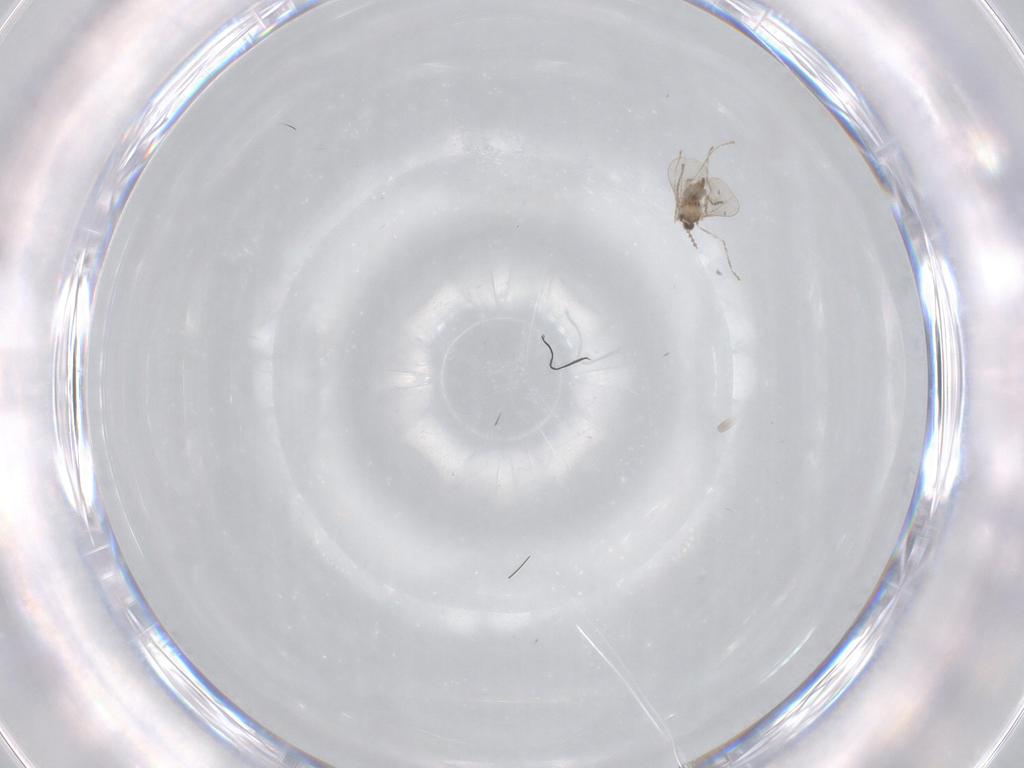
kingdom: Animalia
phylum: Arthropoda
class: Insecta
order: Diptera
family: Cecidomyiidae
